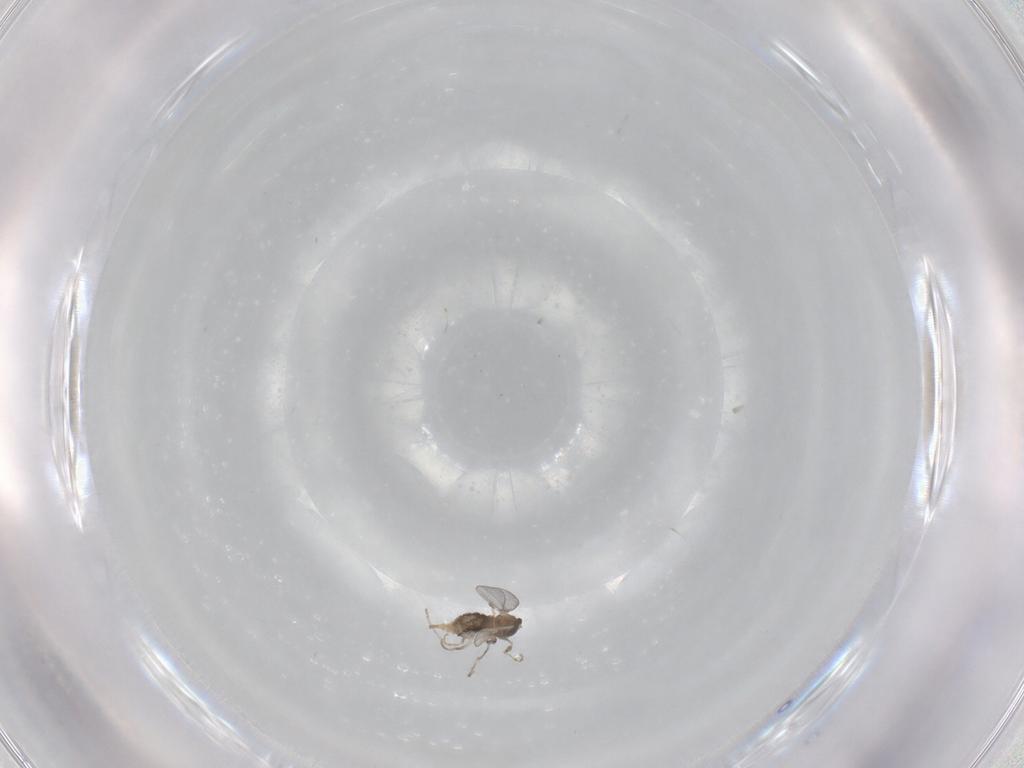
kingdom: Animalia
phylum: Arthropoda
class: Insecta
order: Diptera
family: Cecidomyiidae
